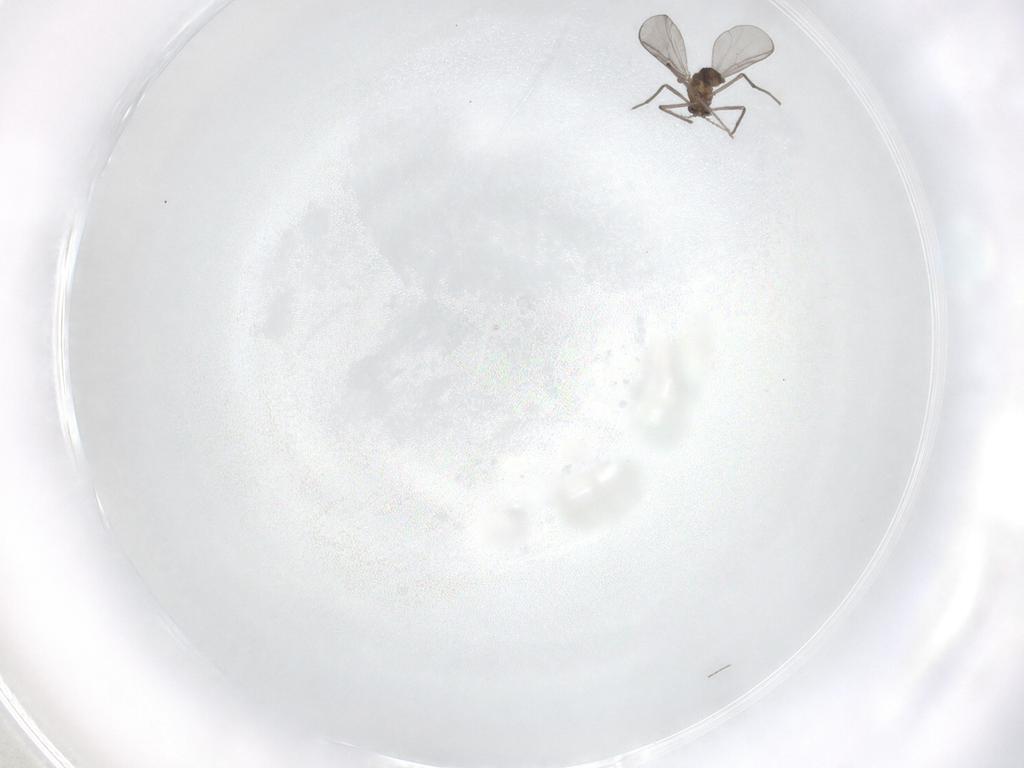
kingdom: Animalia
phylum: Arthropoda
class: Insecta
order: Diptera
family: Chironomidae
